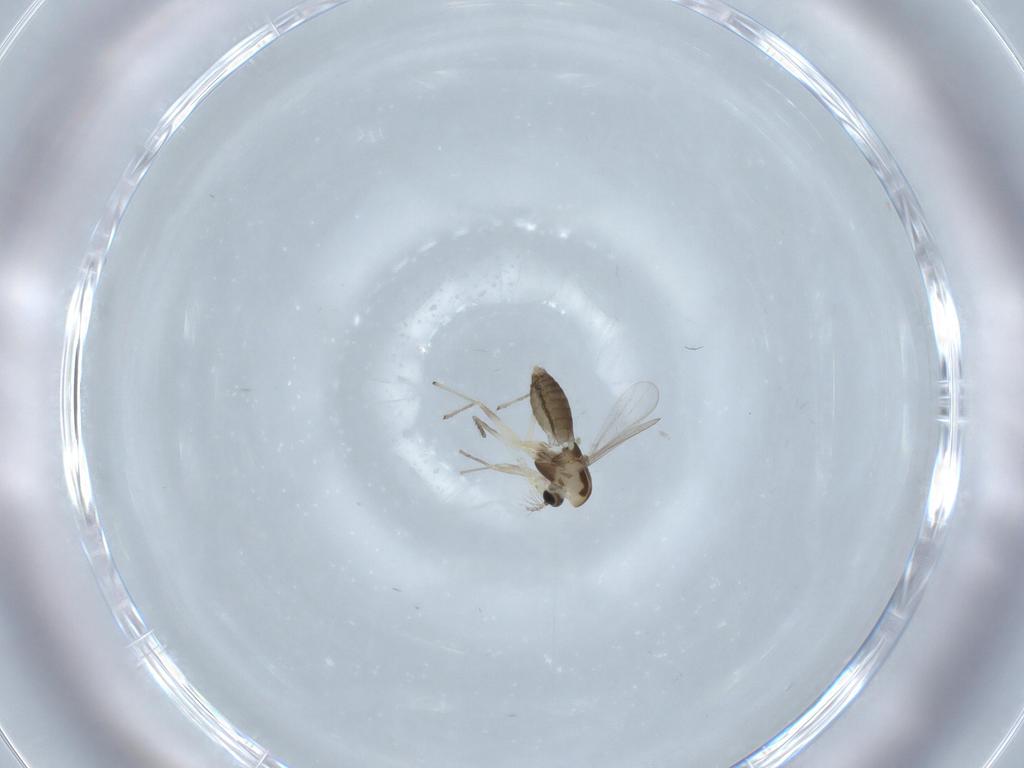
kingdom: Animalia
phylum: Arthropoda
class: Insecta
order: Diptera
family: Chironomidae
